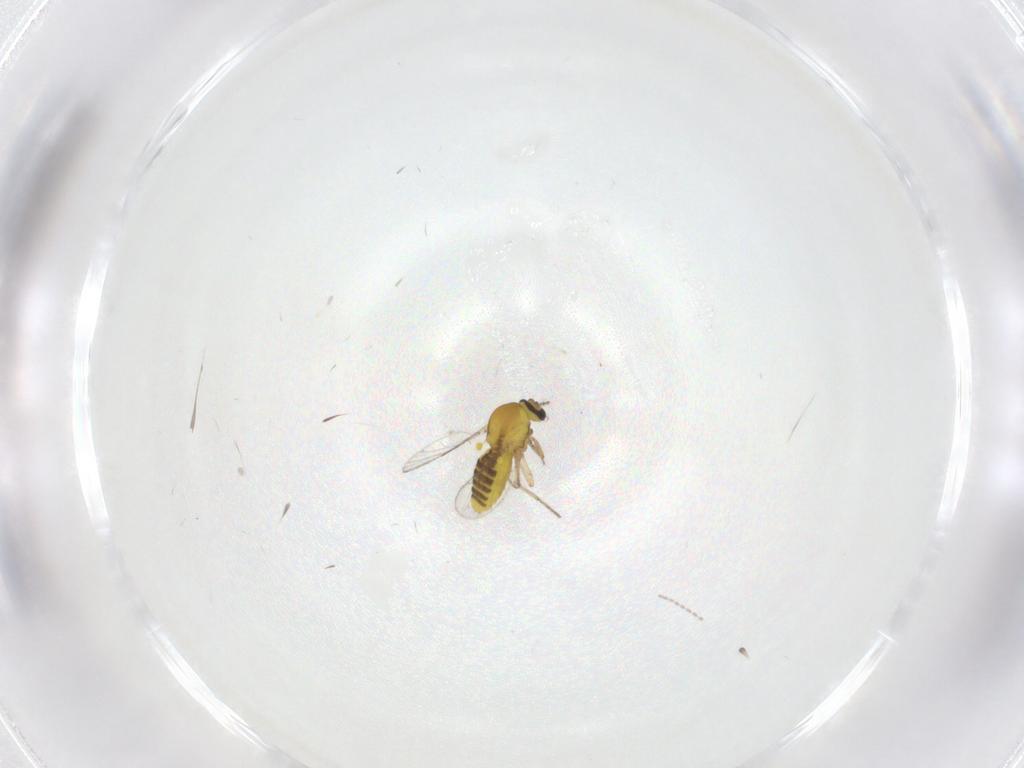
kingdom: Animalia
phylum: Arthropoda
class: Insecta
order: Diptera
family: Ceratopogonidae
